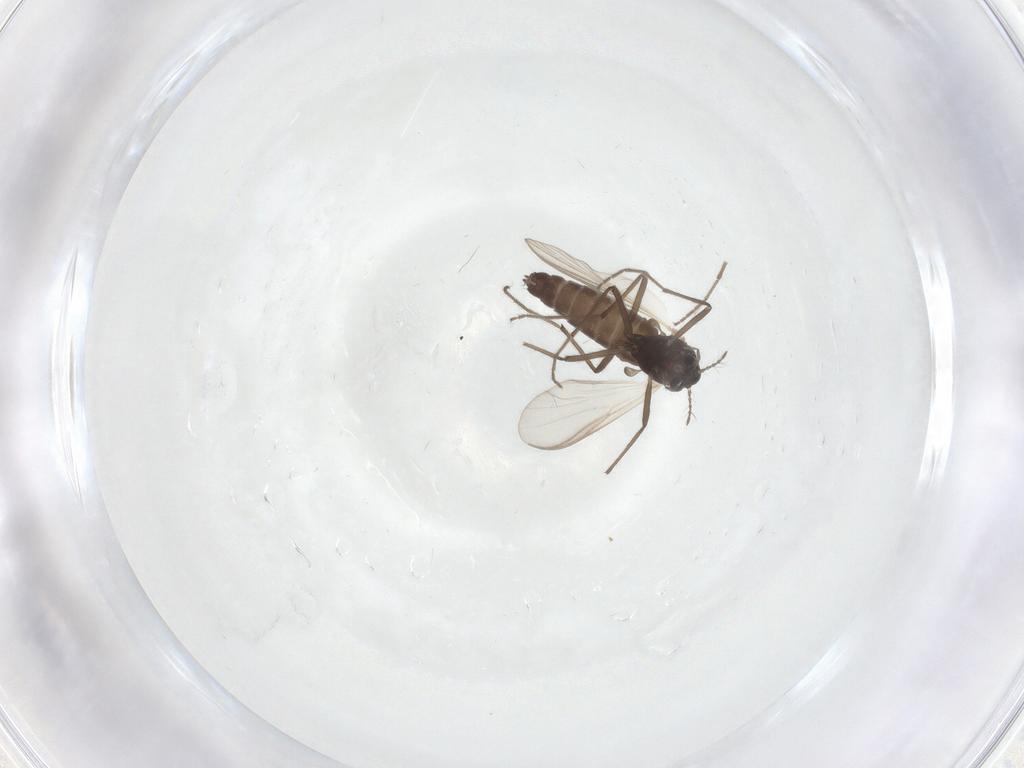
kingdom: Animalia
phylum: Arthropoda
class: Insecta
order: Diptera
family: Chironomidae
